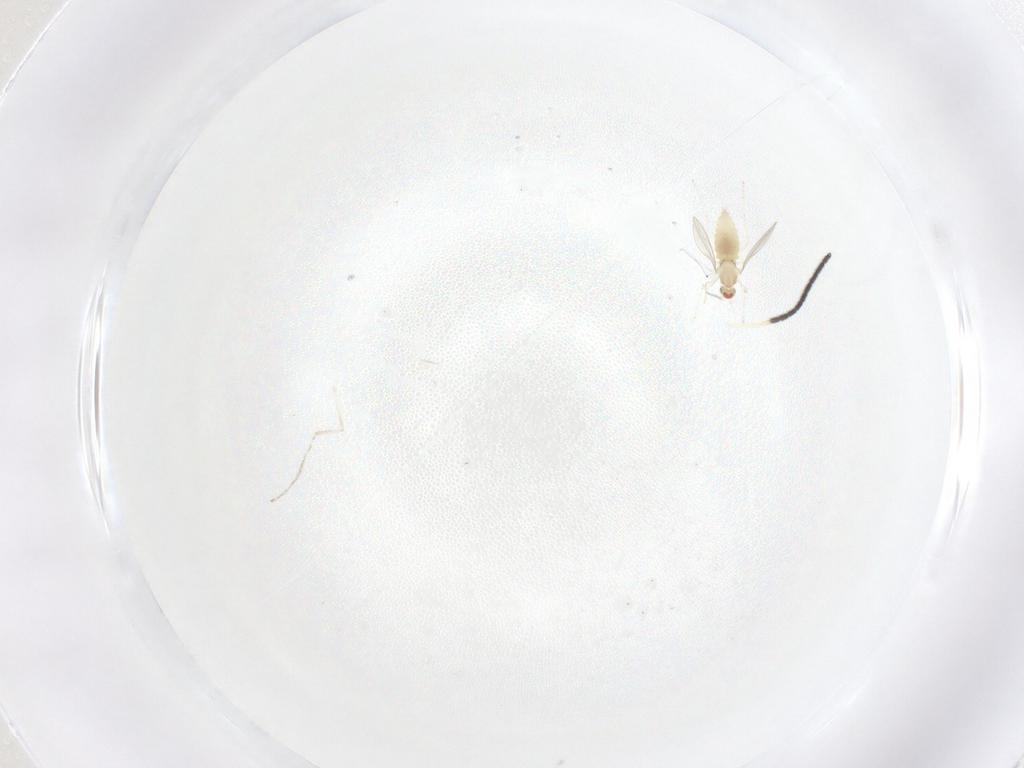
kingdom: Animalia
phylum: Arthropoda
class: Insecta
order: Diptera
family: Cecidomyiidae
